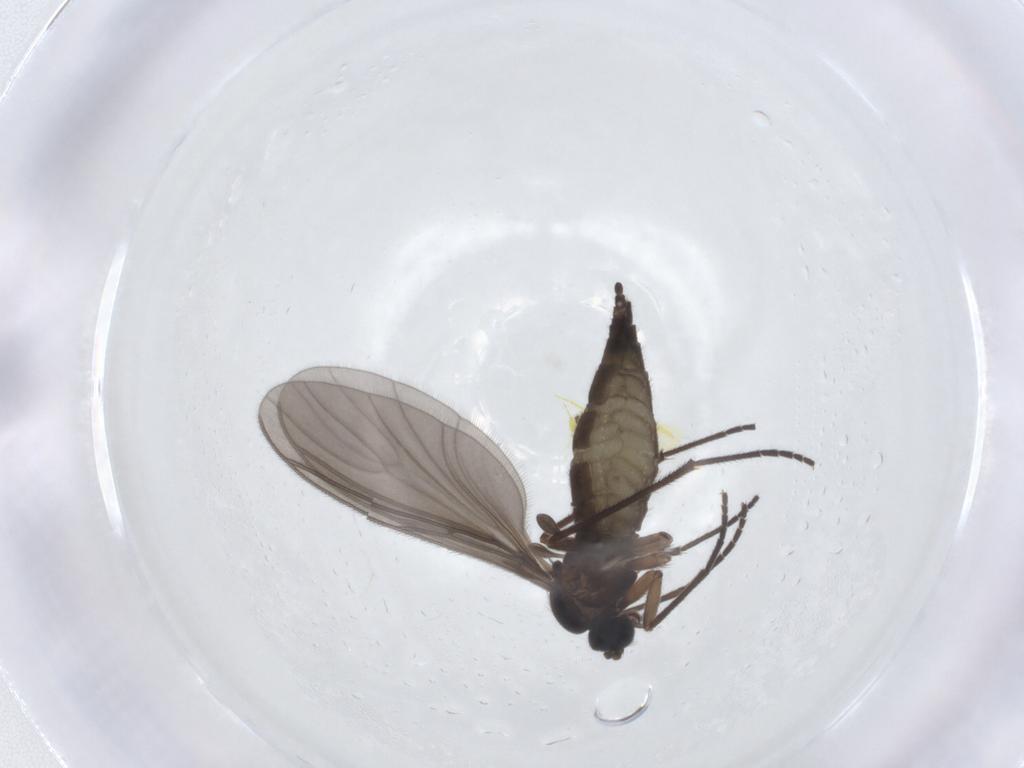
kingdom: Animalia
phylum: Arthropoda
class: Insecta
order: Diptera
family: Sciaridae
